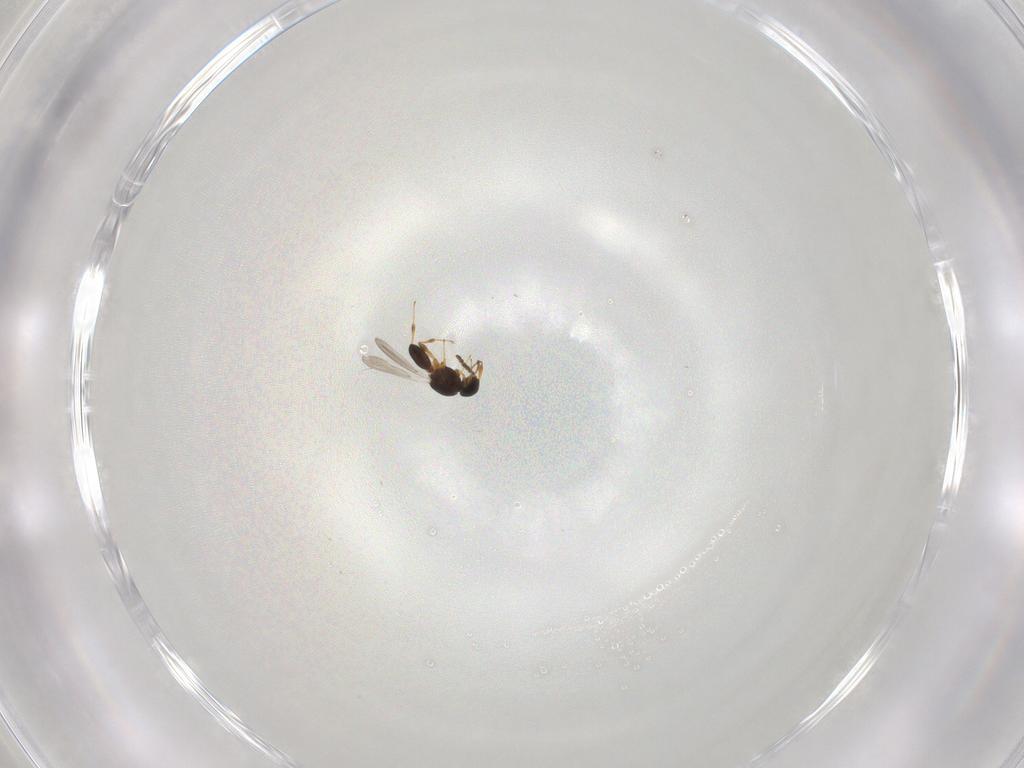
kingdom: Animalia
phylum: Arthropoda
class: Insecta
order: Hymenoptera
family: Platygastridae
